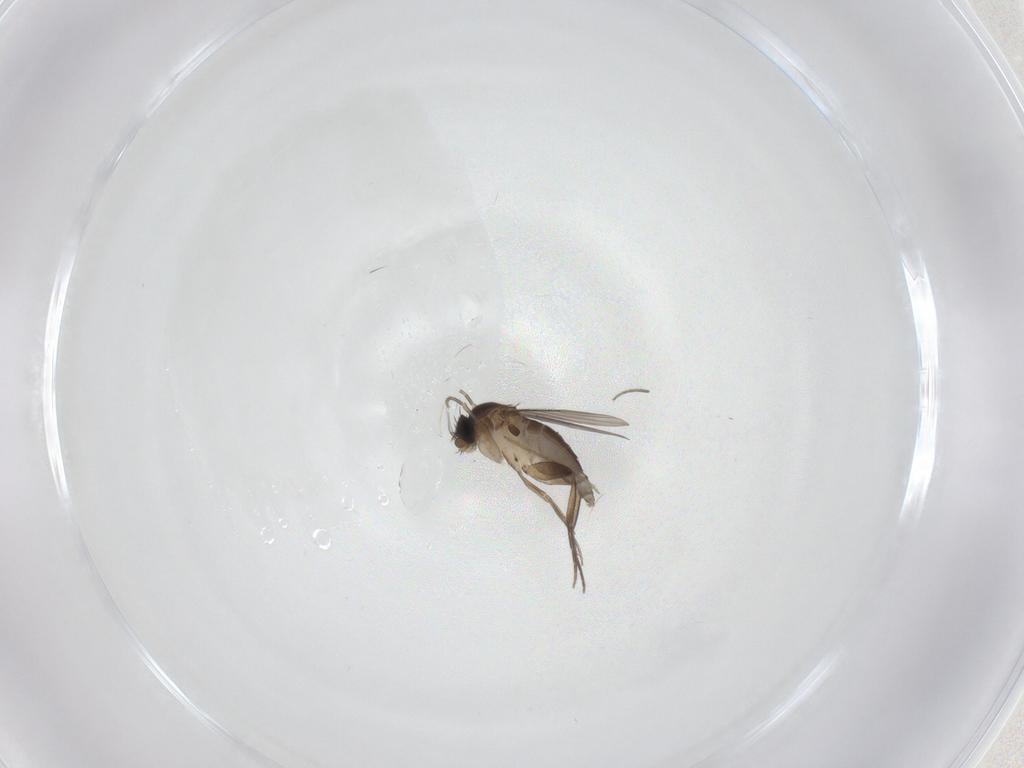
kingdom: Animalia
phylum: Arthropoda
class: Insecta
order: Diptera
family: Phoridae
